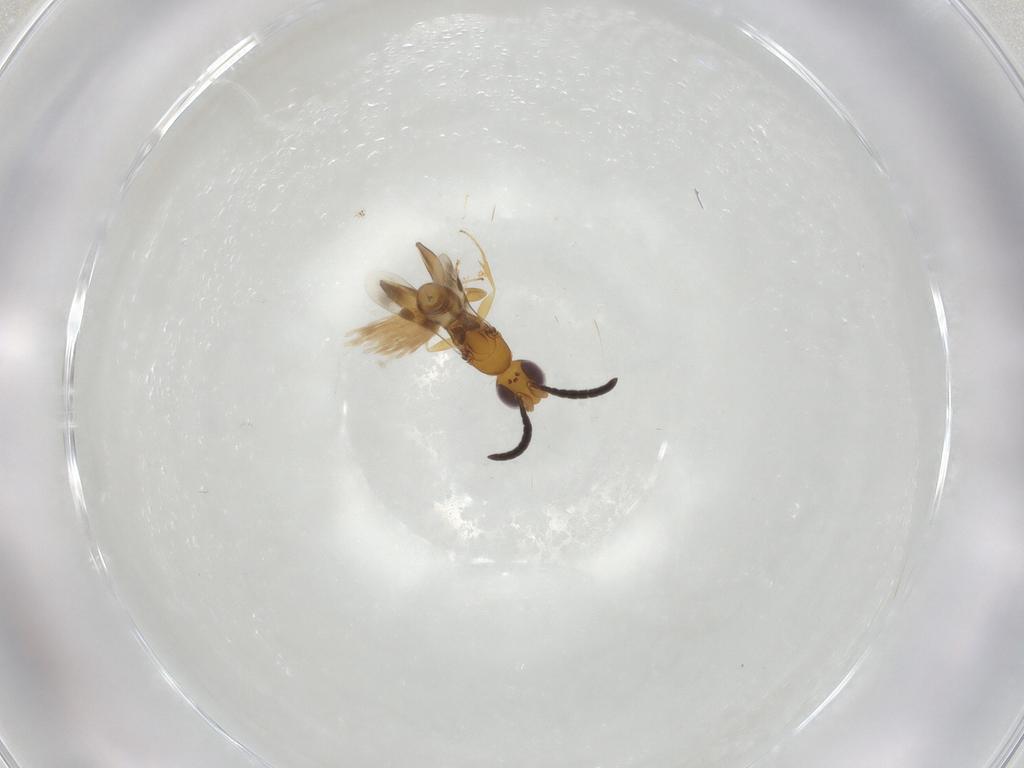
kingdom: Animalia
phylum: Arthropoda
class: Insecta
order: Hymenoptera
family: Megaspilidae
